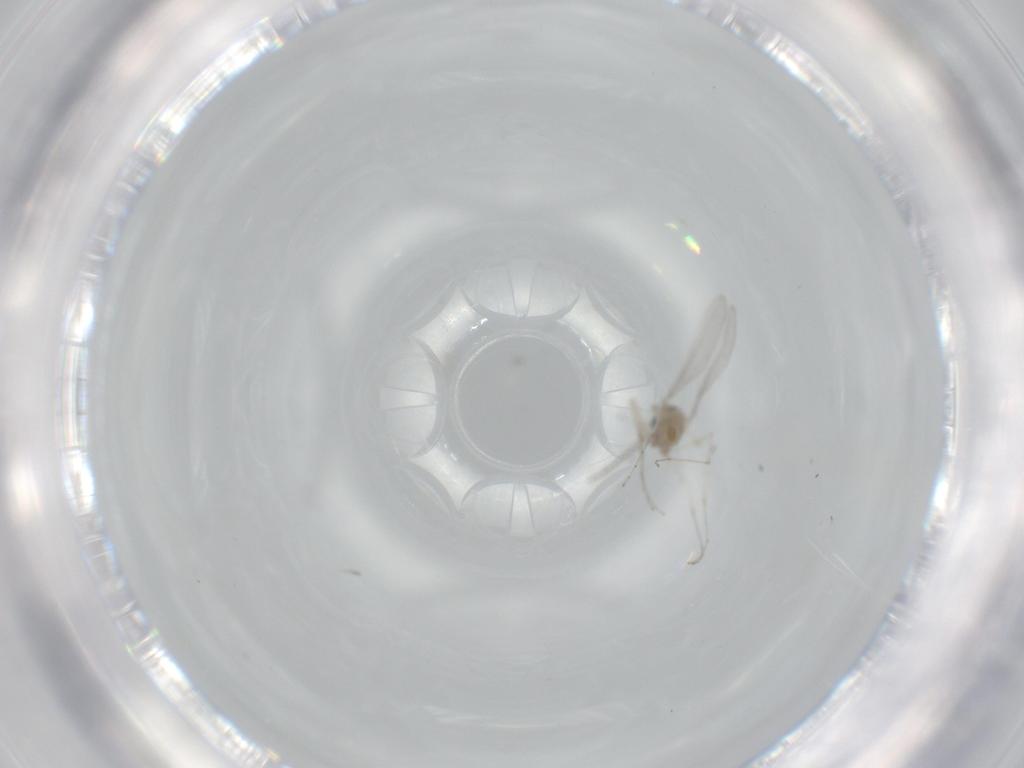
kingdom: Animalia
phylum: Arthropoda
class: Insecta
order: Diptera
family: Cecidomyiidae
